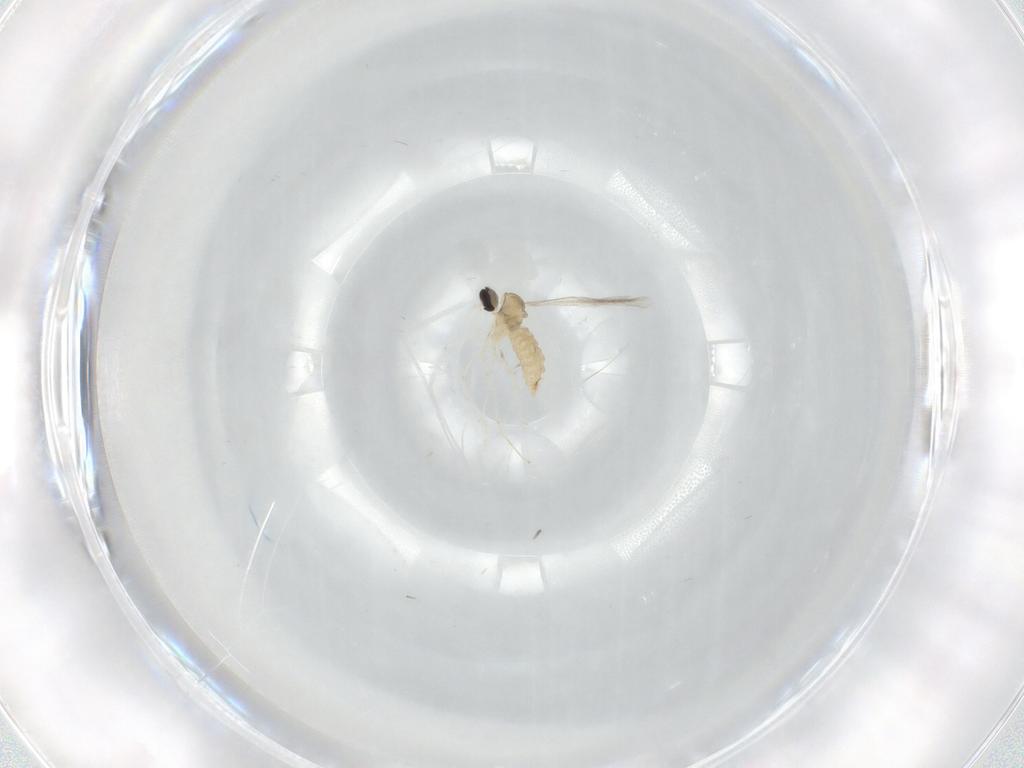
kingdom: Animalia
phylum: Arthropoda
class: Insecta
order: Diptera
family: Cecidomyiidae
